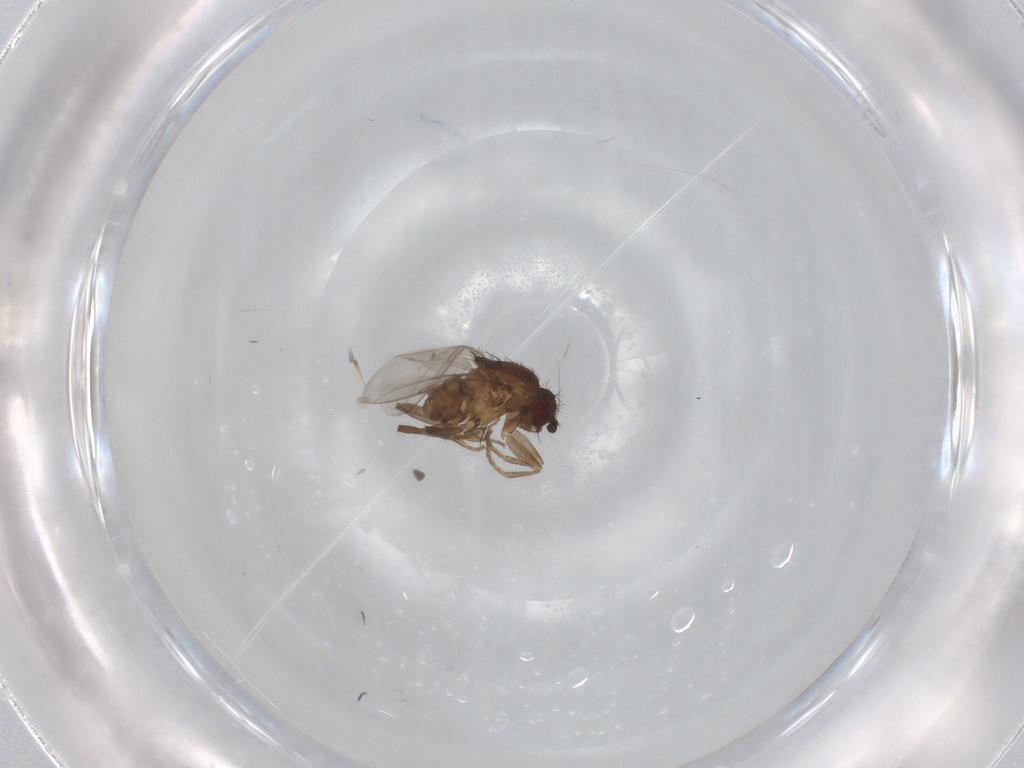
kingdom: Animalia
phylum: Arthropoda
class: Insecta
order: Diptera
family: Sphaeroceridae
